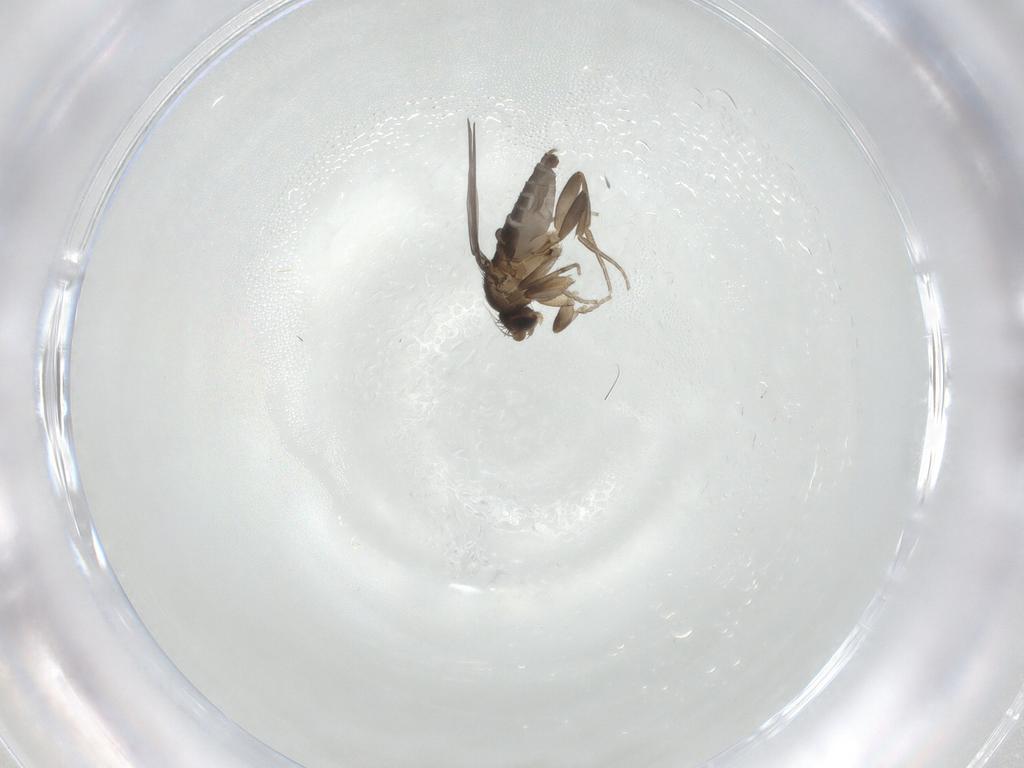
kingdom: Animalia
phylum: Arthropoda
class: Insecta
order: Diptera
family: Phoridae
